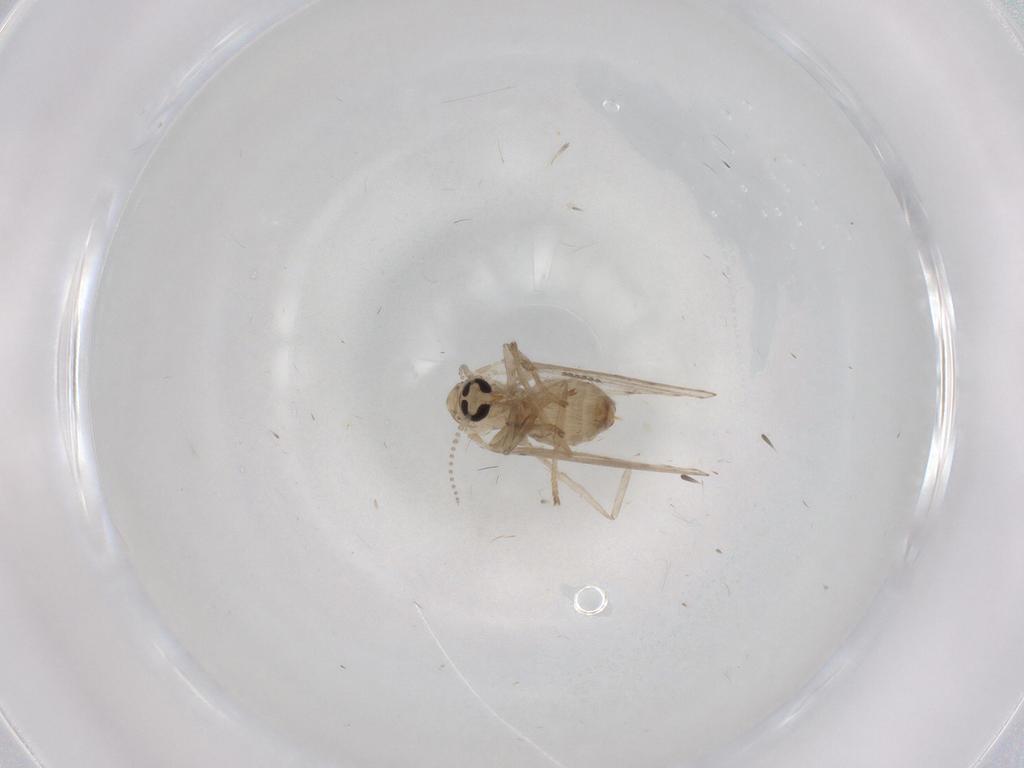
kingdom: Animalia
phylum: Arthropoda
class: Insecta
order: Diptera
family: Psychodidae
